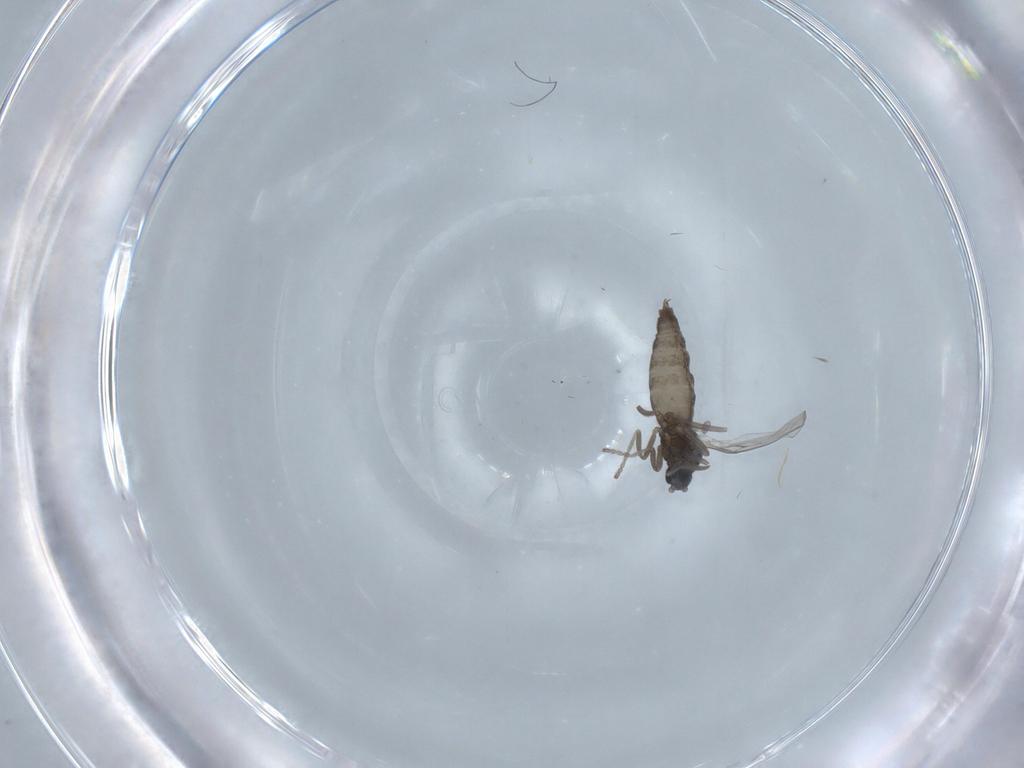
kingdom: Animalia
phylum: Arthropoda
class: Insecta
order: Diptera
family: Cecidomyiidae
